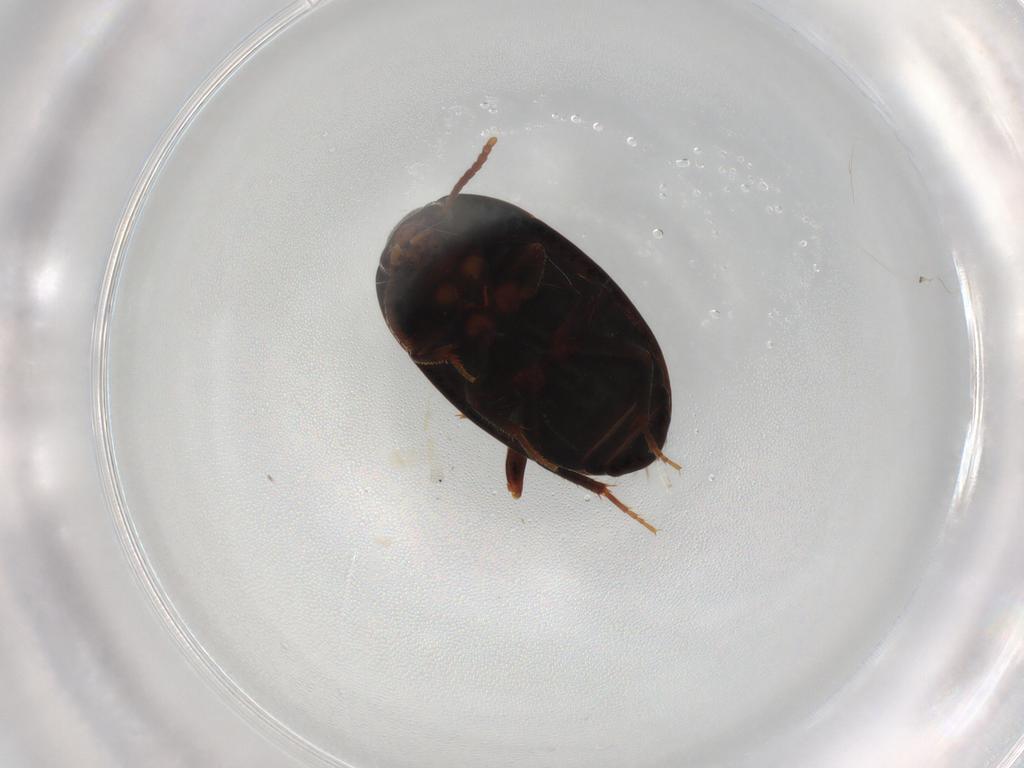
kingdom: Animalia
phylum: Arthropoda
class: Insecta
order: Coleoptera
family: Tenebrionidae
